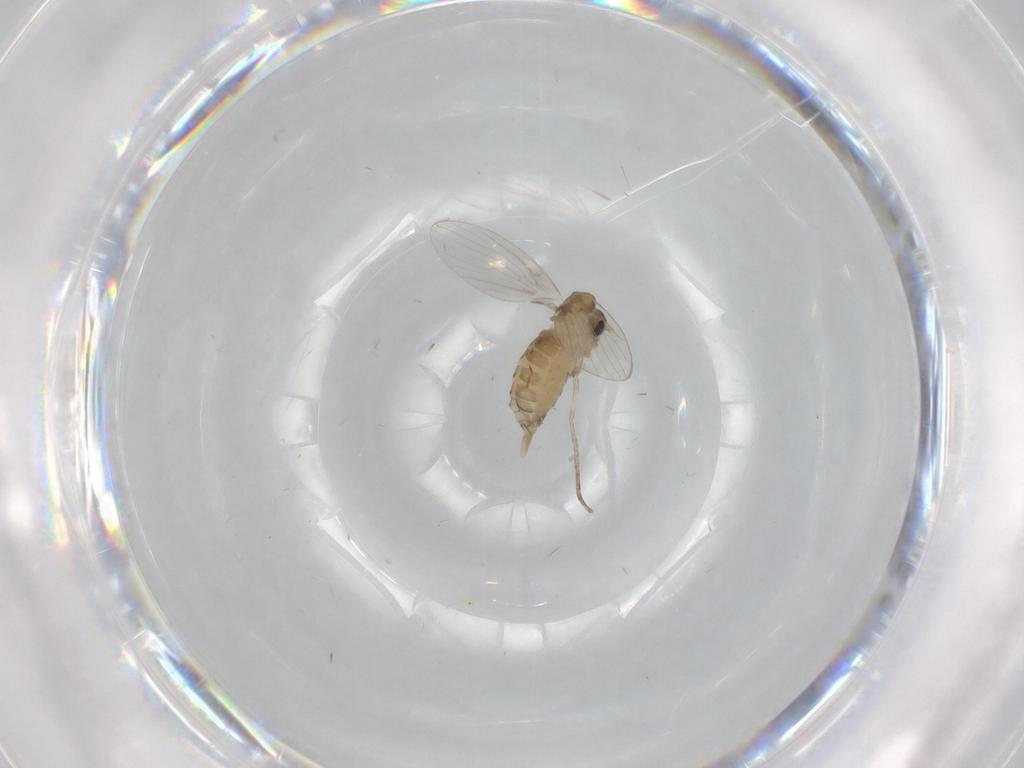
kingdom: Animalia
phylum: Arthropoda
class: Insecta
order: Diptera
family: Psychodidae
